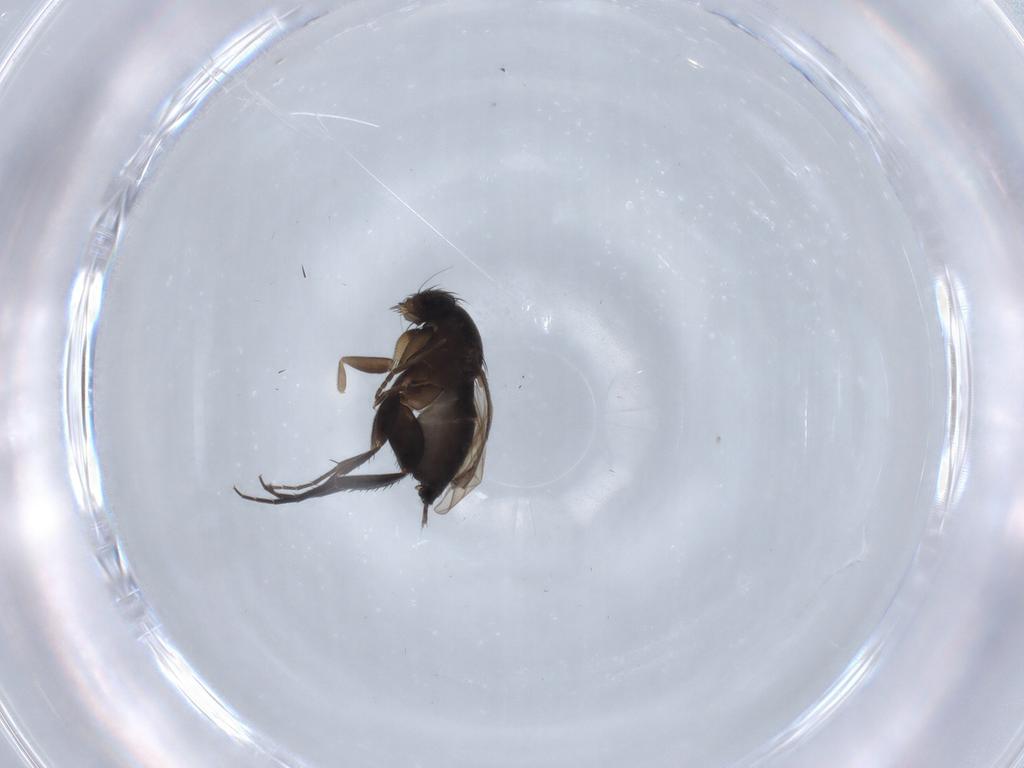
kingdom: Animalia
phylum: Arthropoda
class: Insecta
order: Diptera
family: Phoridae
